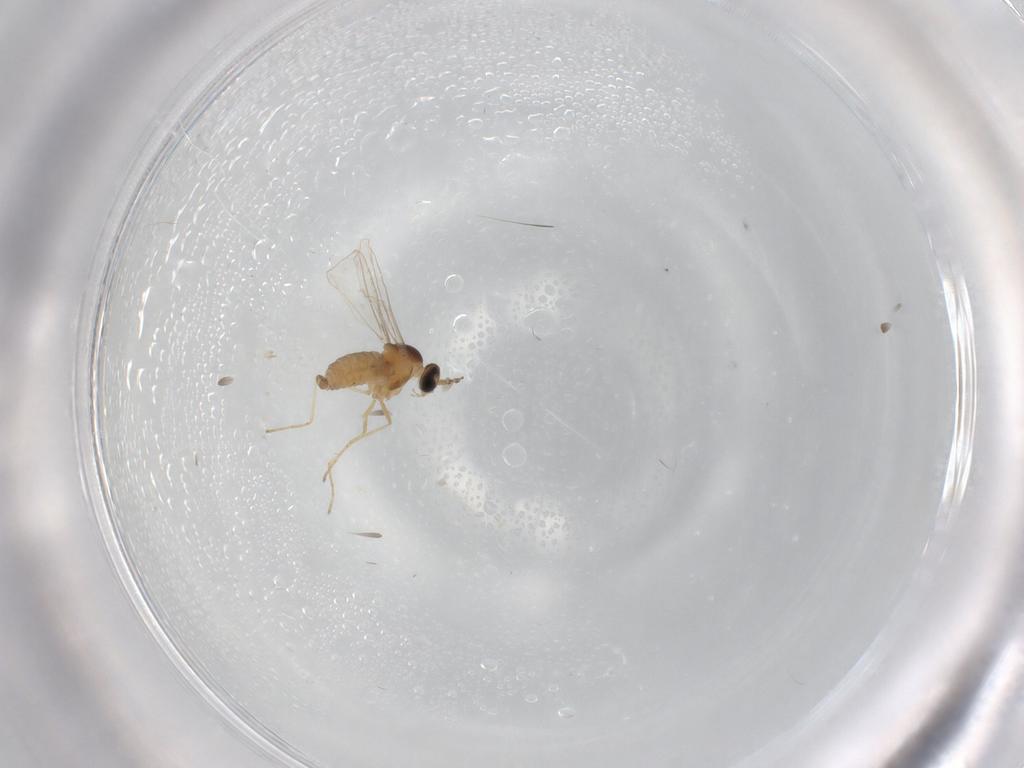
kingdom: Animalia
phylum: Arthropoda
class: Insecta
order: Diptera
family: Cecidomyiidae
